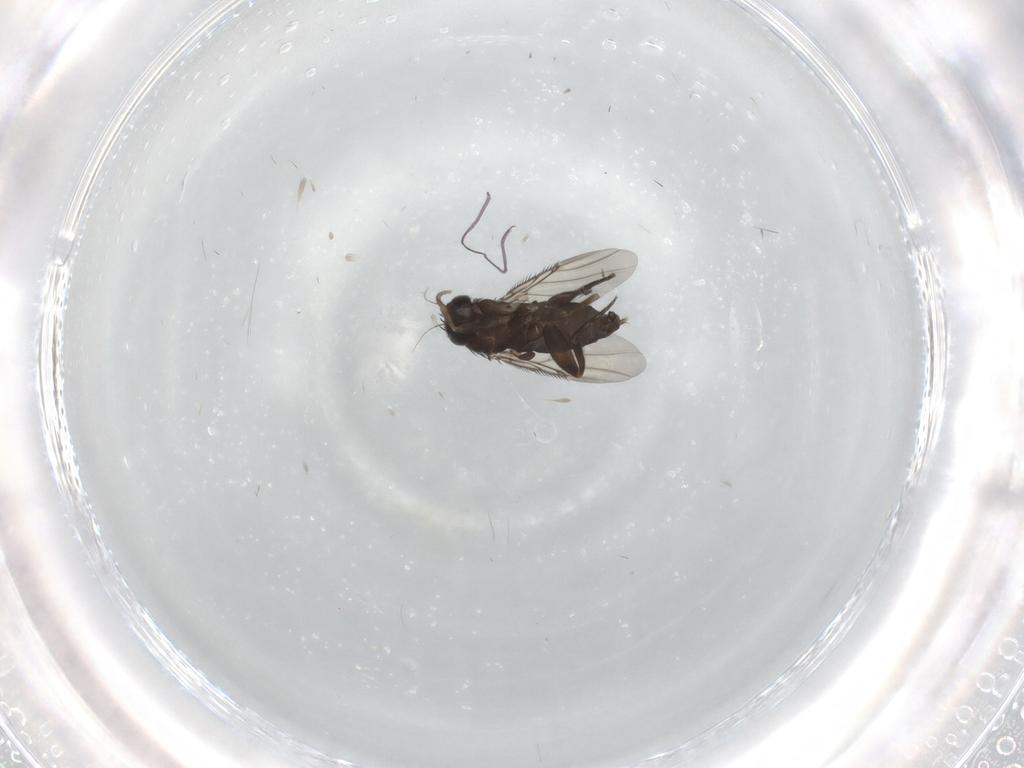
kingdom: Animalia
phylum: Arthropoda
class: Insecta
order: Diptera
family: Phoridae
